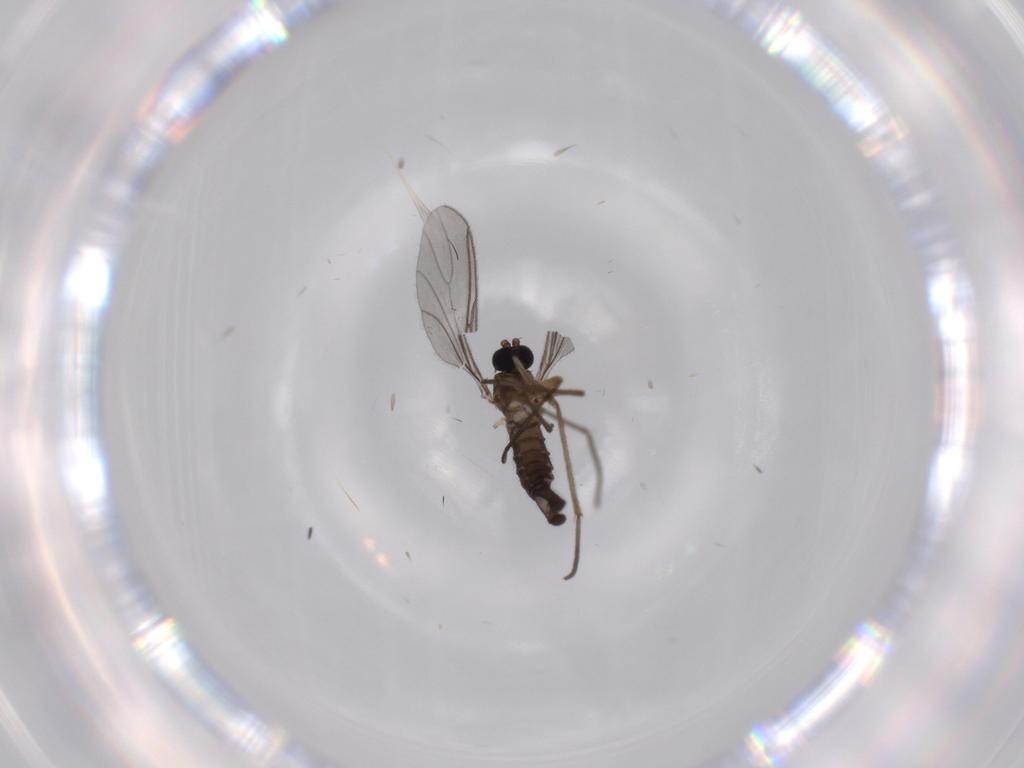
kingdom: Animalia
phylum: Arthropoda
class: Insecta
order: Diptera
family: Sciaridae
